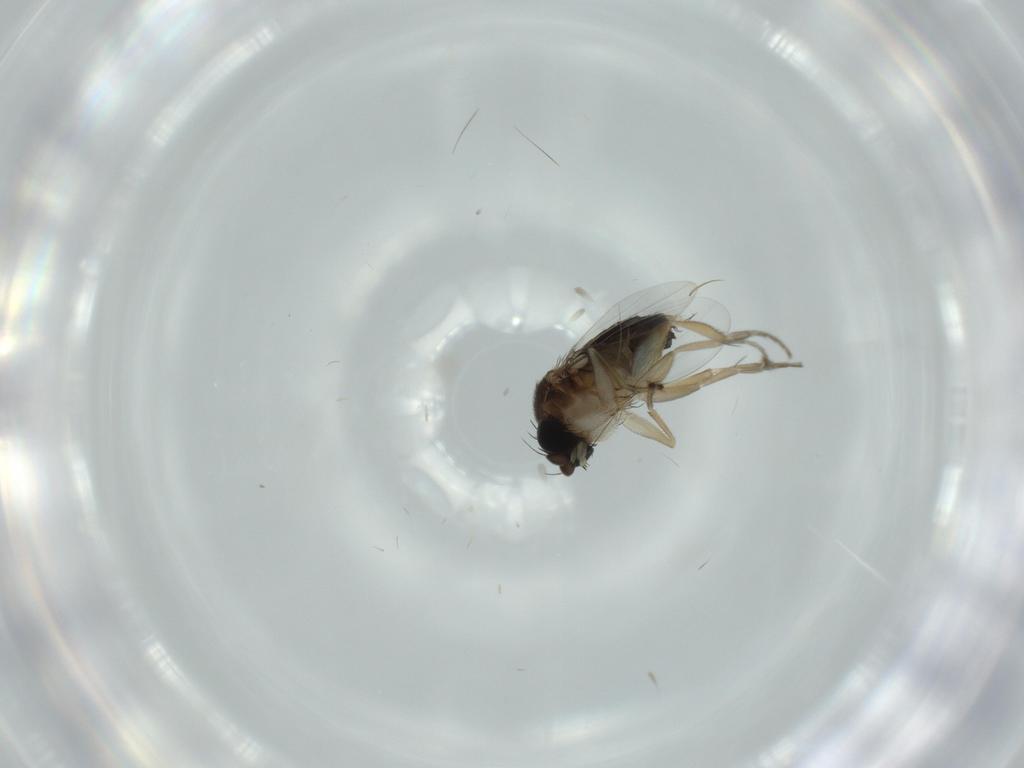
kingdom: Animalia
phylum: Arthropoda
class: Insecta
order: Diptera
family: Phoridae
